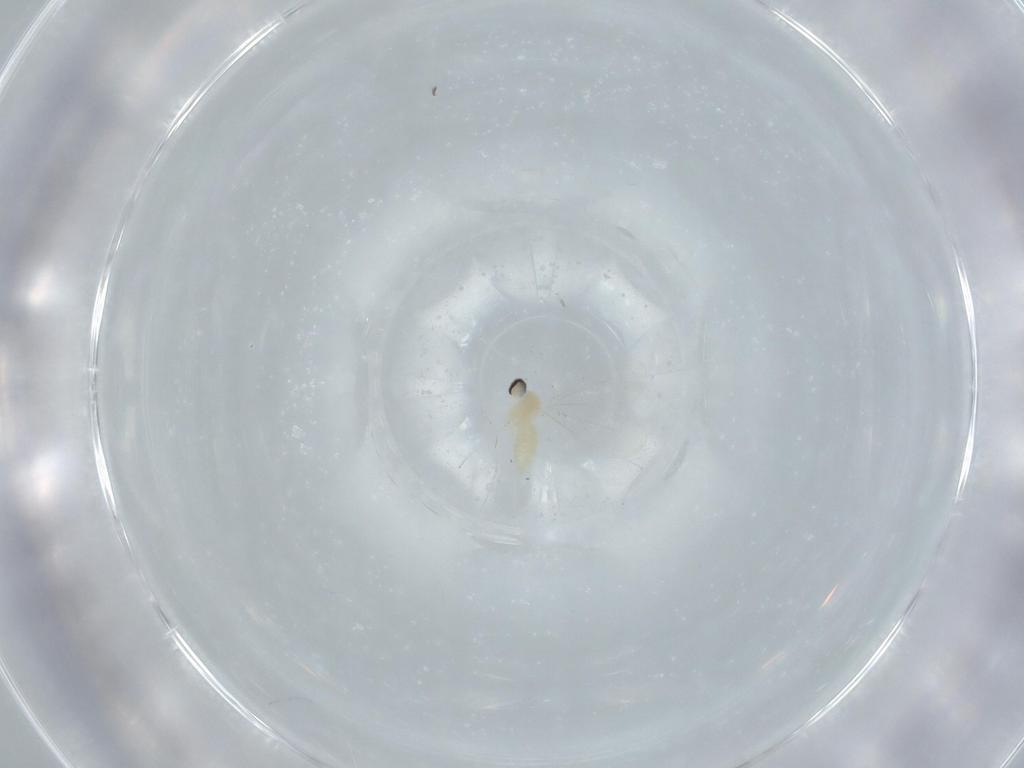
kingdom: Animalia
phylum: Arthropoda
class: Insecta
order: Diptera
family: Cecidomyiidae
